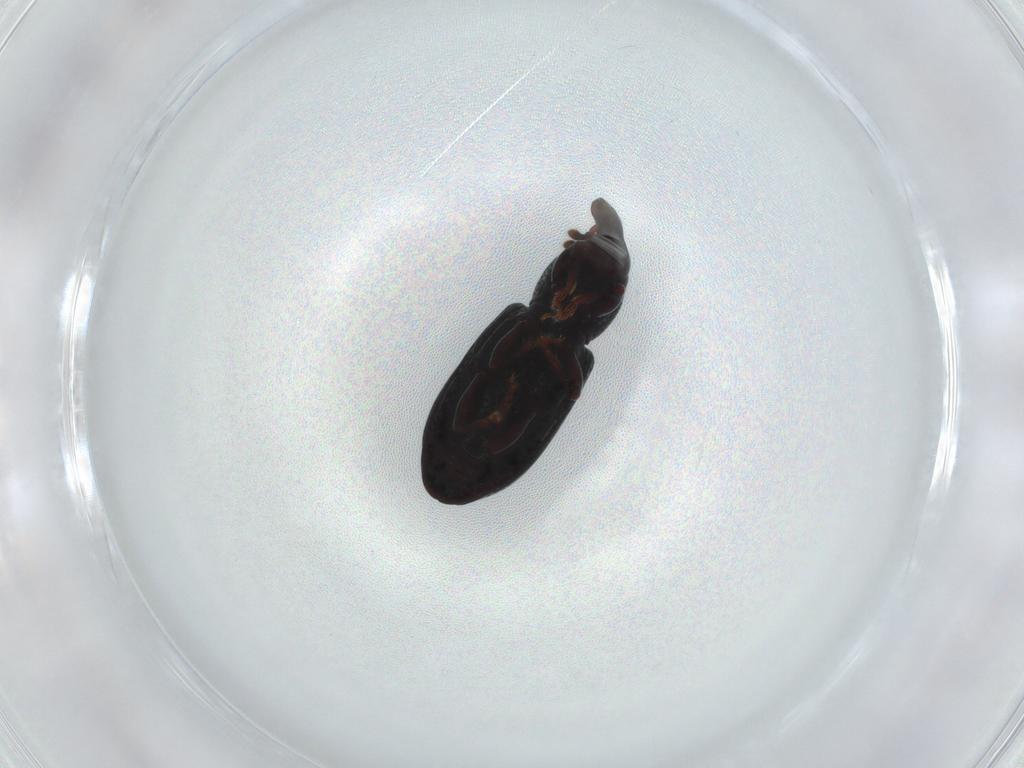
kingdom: Animalia
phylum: Arthropoda
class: Insecta
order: Coleoptera
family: Curculionidae
